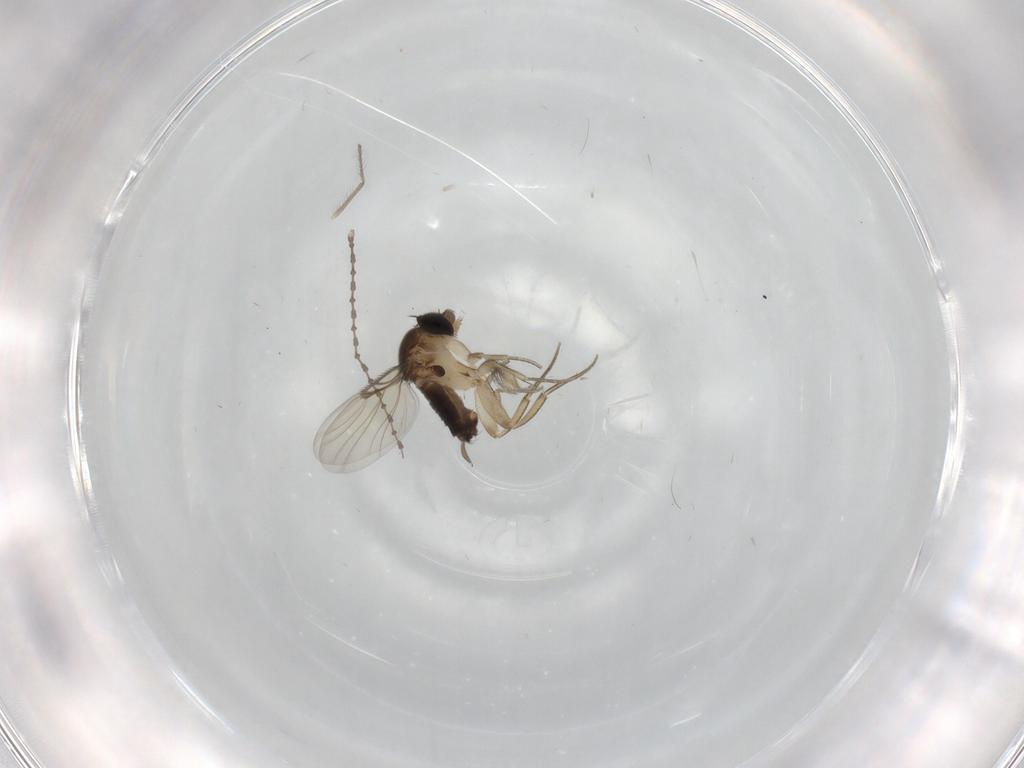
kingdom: Animalia
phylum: Arthropoda
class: Insecta
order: Diptera
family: Cecidomyiidae
